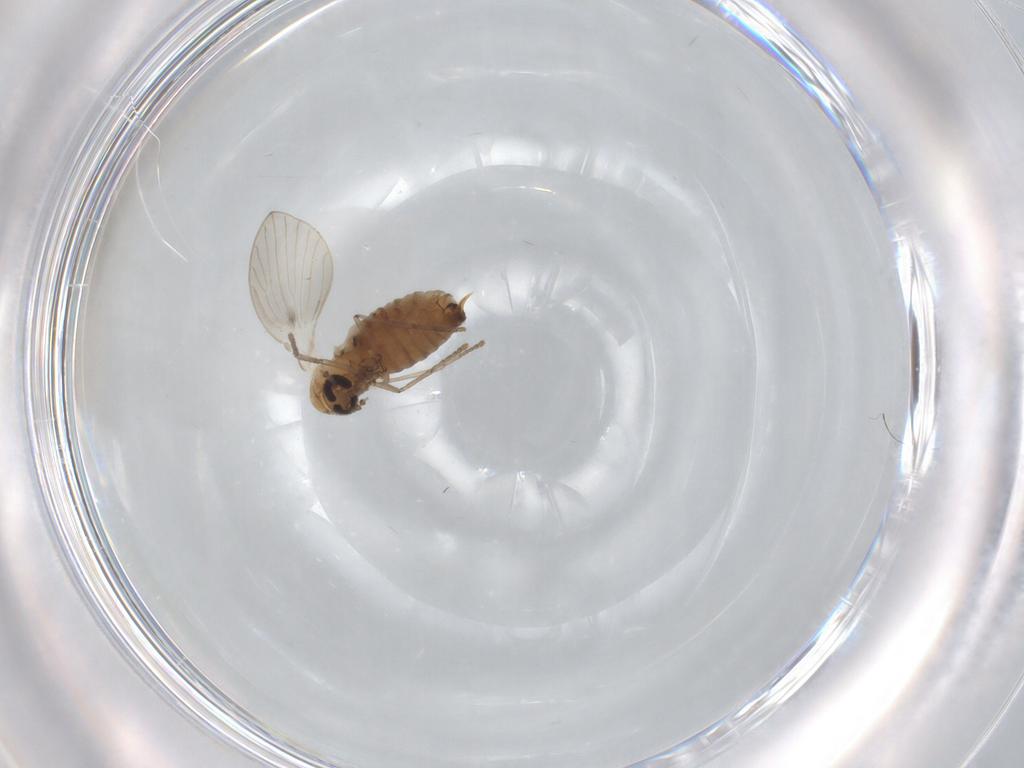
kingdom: Animalia
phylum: Arthropoda
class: Insecta
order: Diptera
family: Psychodidae
